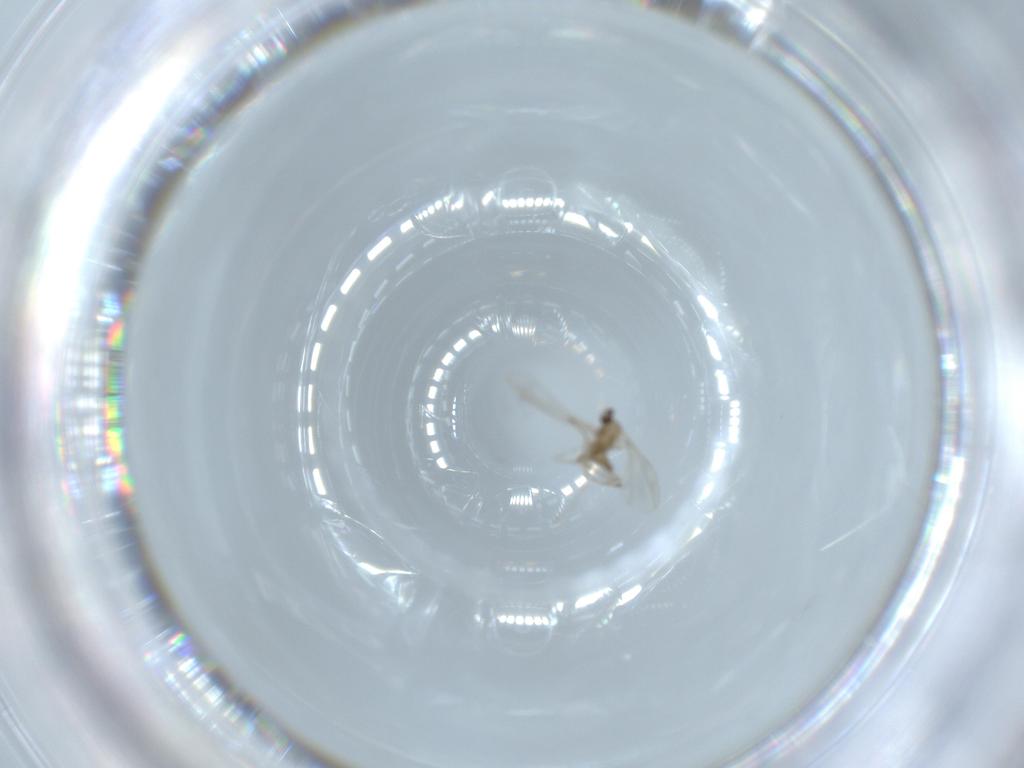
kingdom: Animalia
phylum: Arthropoda
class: Insecta
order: Diptera
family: Cecidomyiidae
